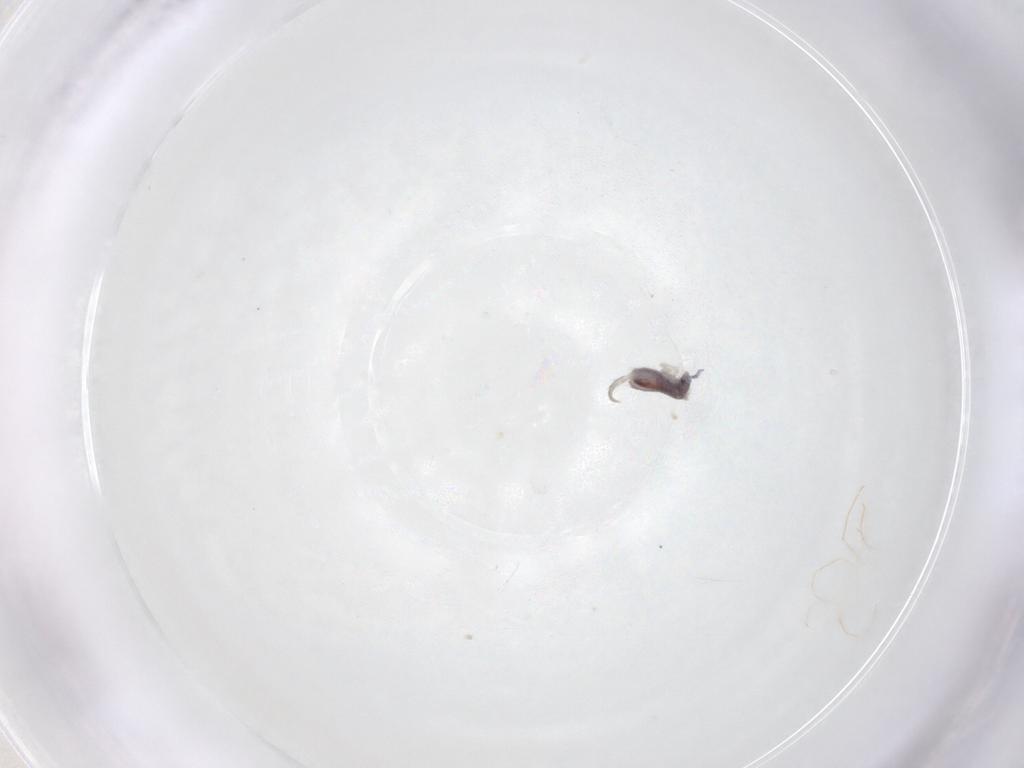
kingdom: Animalia
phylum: Arthropoda
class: Collembola
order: Entomobryomorpha
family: Entomobryidae
